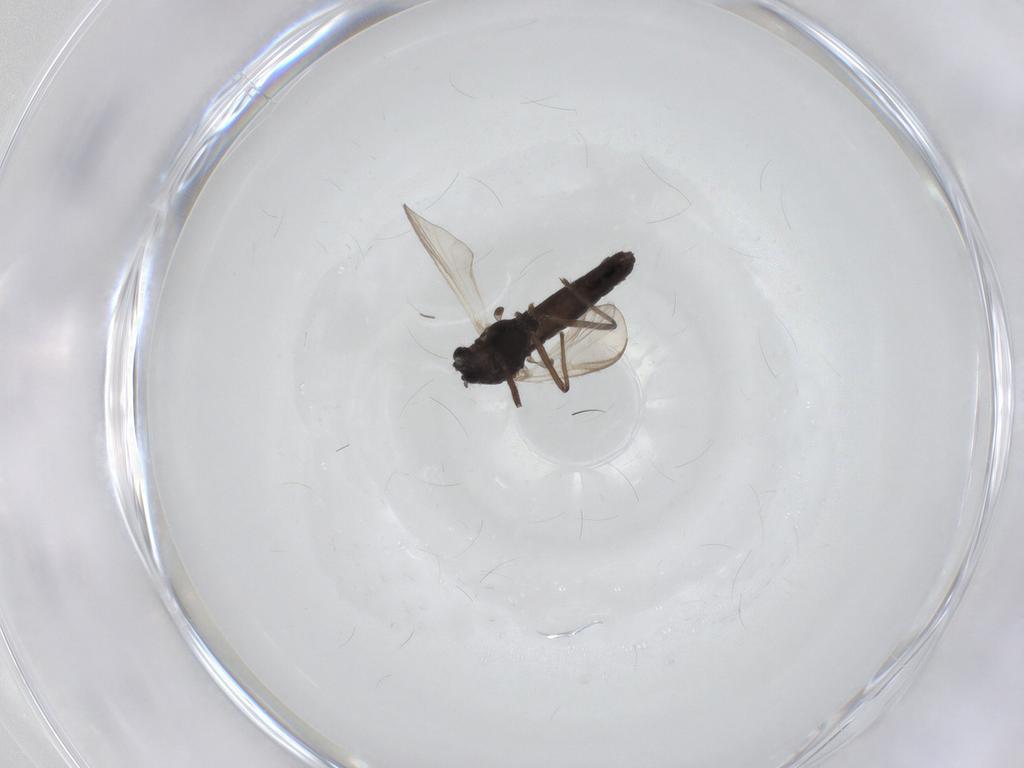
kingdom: Animalia
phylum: Arthropoda
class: Insecta
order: Diptera
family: Chironomidae
